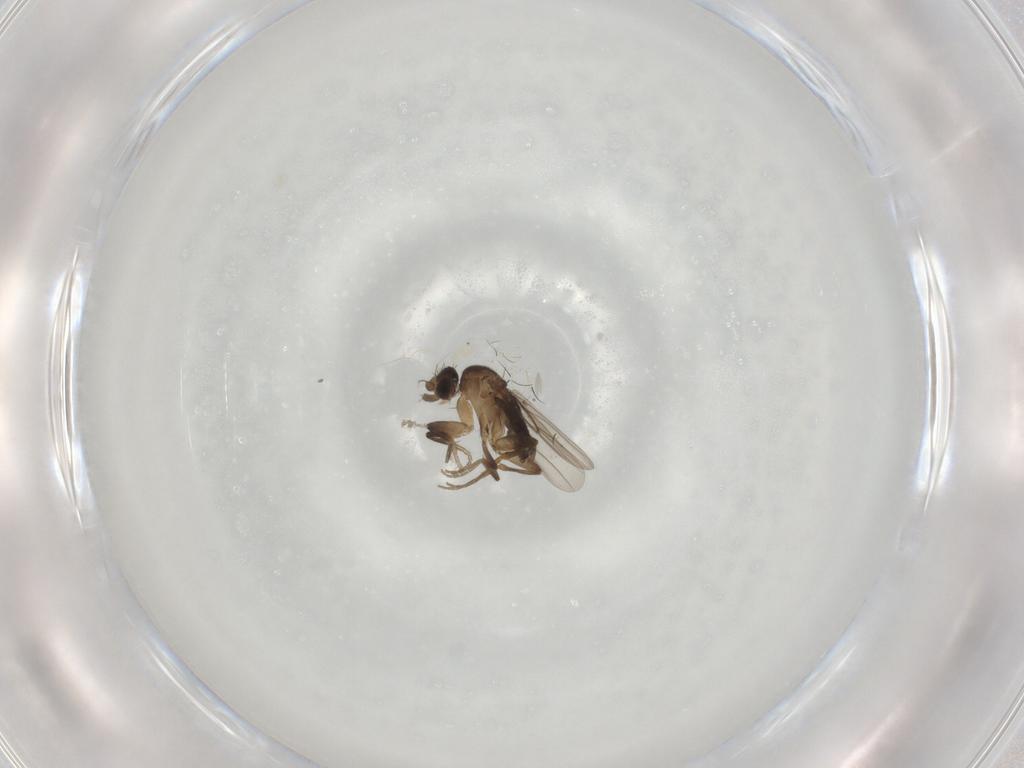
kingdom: Animalia
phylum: Arthropoda
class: Insecta
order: Diptera
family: Phoridae
